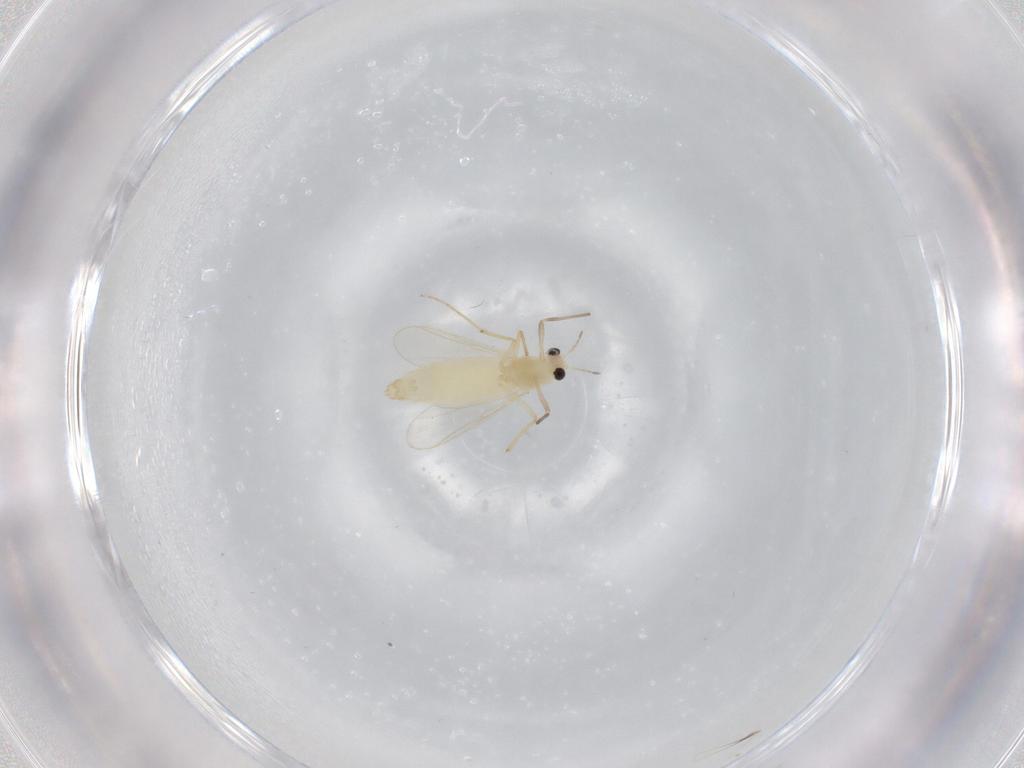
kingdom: Animalia
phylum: Arthropoda
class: Insecta
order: Diptera
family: Chironomidae
